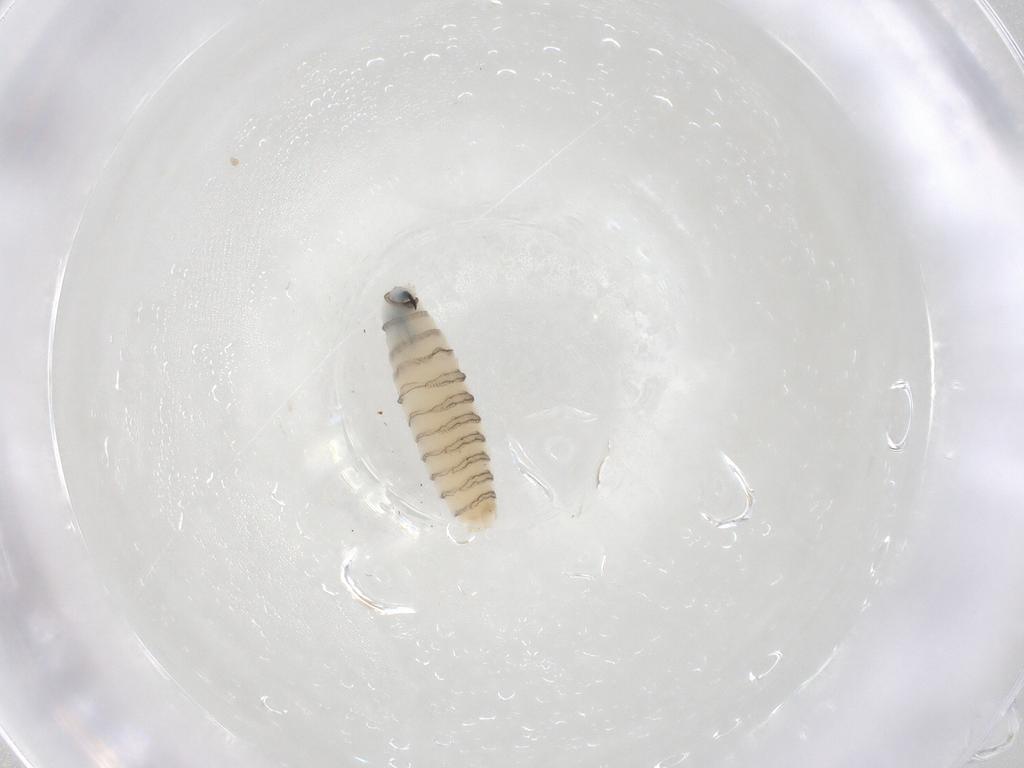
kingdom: Animalia
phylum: Arthropoda
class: Insecta
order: Diptera
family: Sarcophagidae
